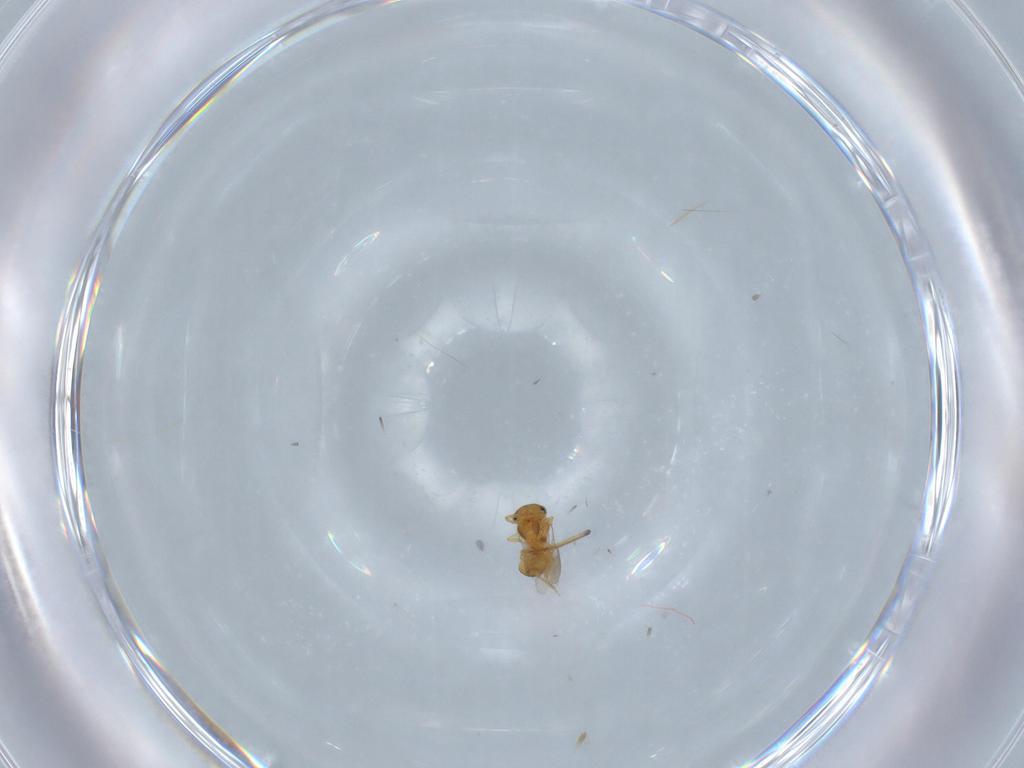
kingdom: Animalia
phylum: Arthropoda
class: Insecta
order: Hymenoptera
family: Scelionidae
